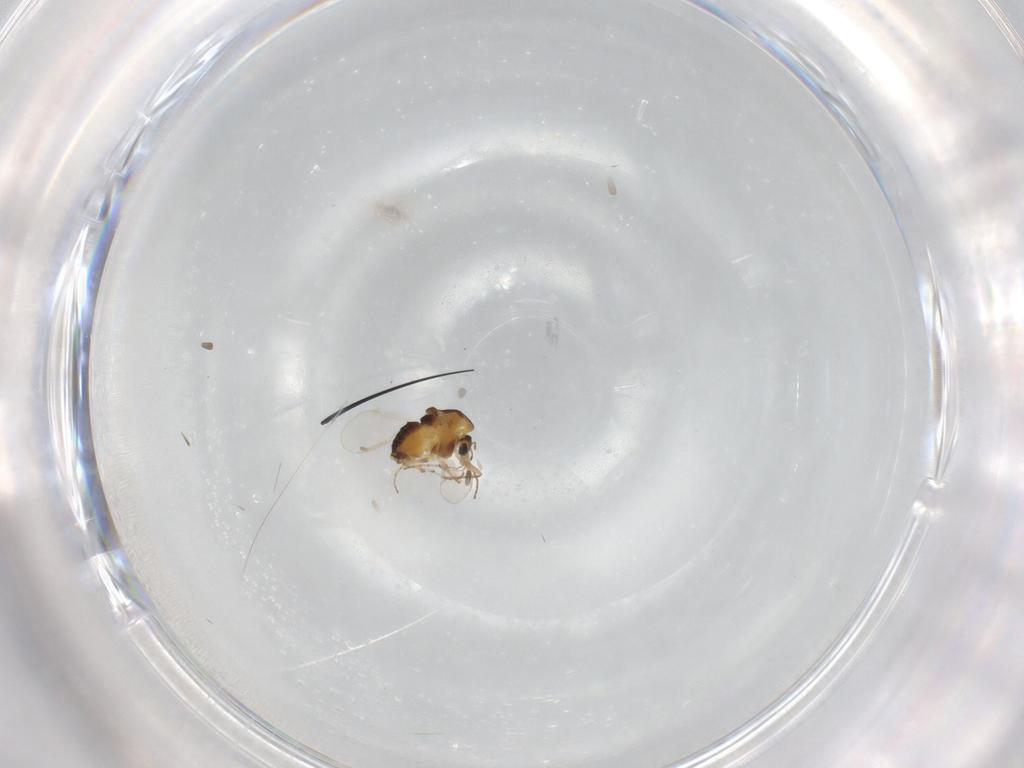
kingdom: Animalia
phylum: Arthropoda
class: Insecta
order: Diptera
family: Chironomidae
